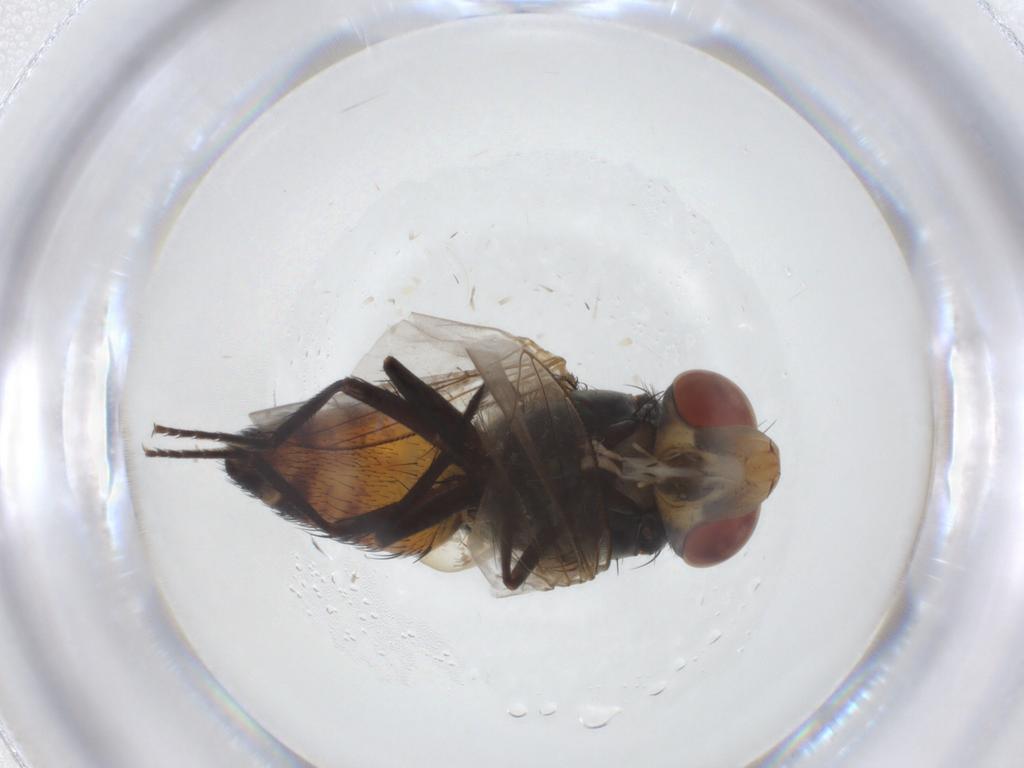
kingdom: Animalia
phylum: Arthropoda
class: Insecta
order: Diptera
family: Sarcophagidae
